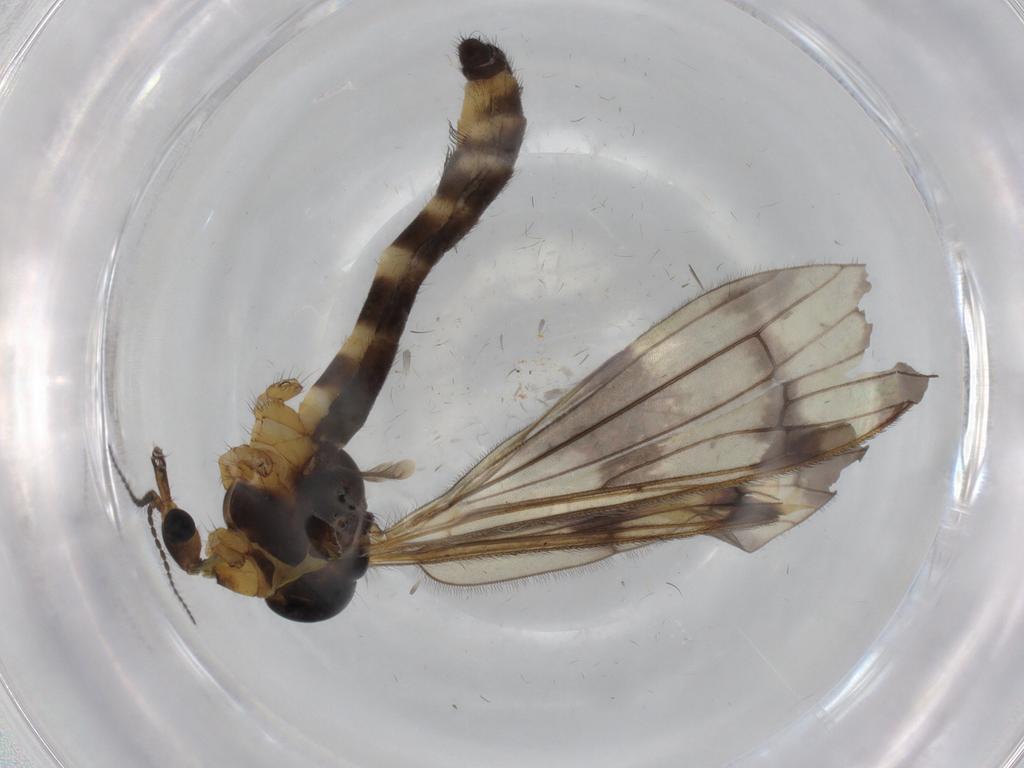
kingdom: Animalia
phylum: Arthropoda
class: Insecta
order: Diptera
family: Limoniidae
